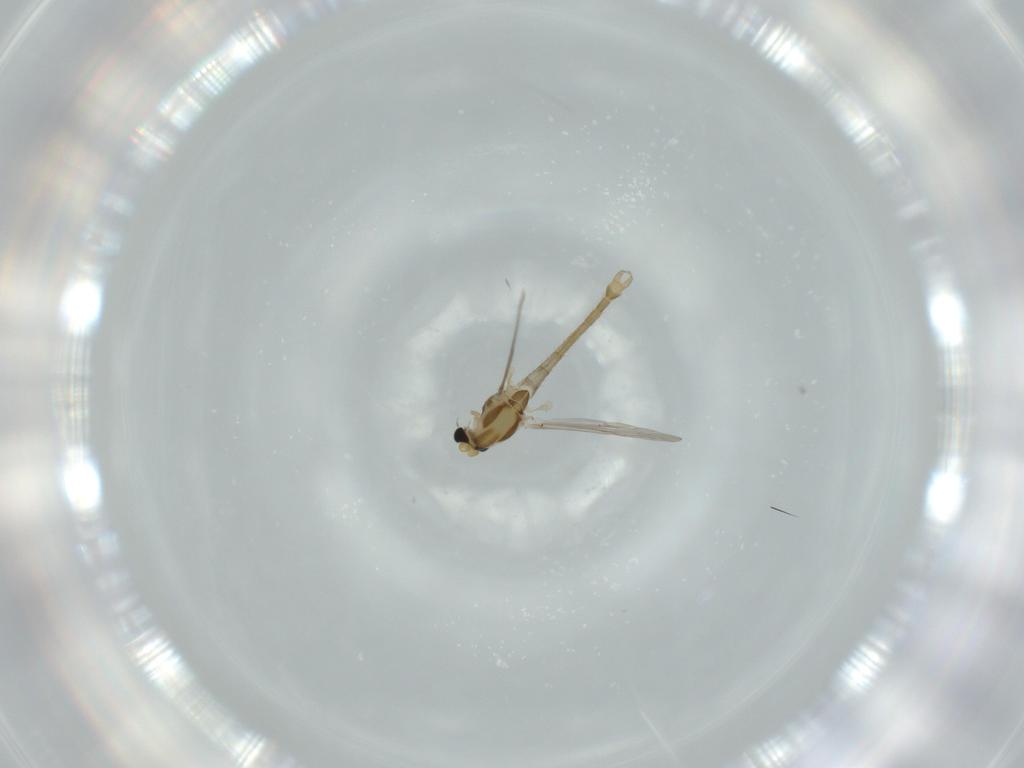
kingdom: Animalia
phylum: Arthropoda
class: Insecta
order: Diptera
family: Chironomidae
